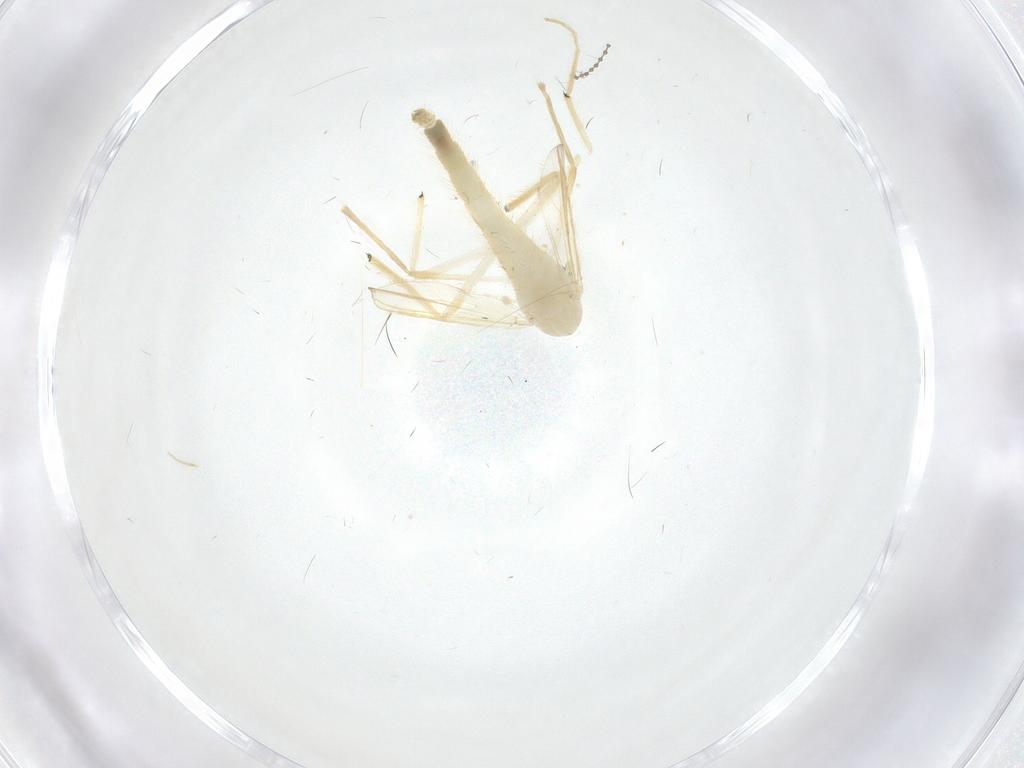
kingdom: Animalia
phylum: Arthropoda
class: Insecta
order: Diptera
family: Chironomidae
